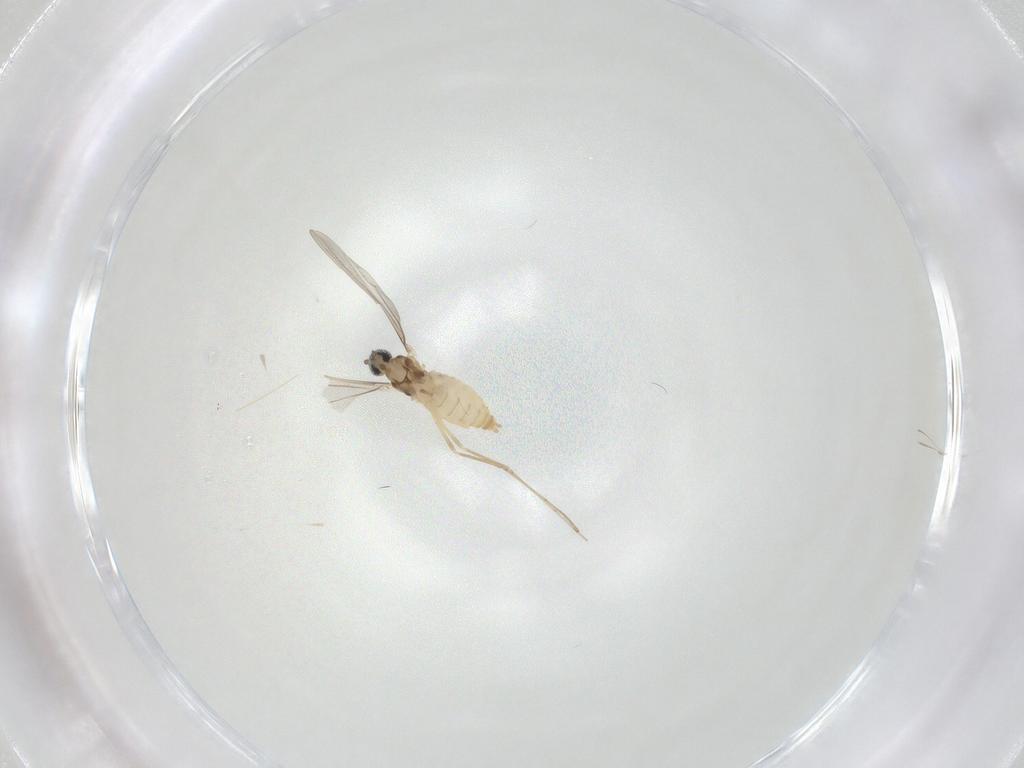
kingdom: Animalia
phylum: Arthropoda
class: Insecta
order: Diptera
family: Cecidomyiidae
